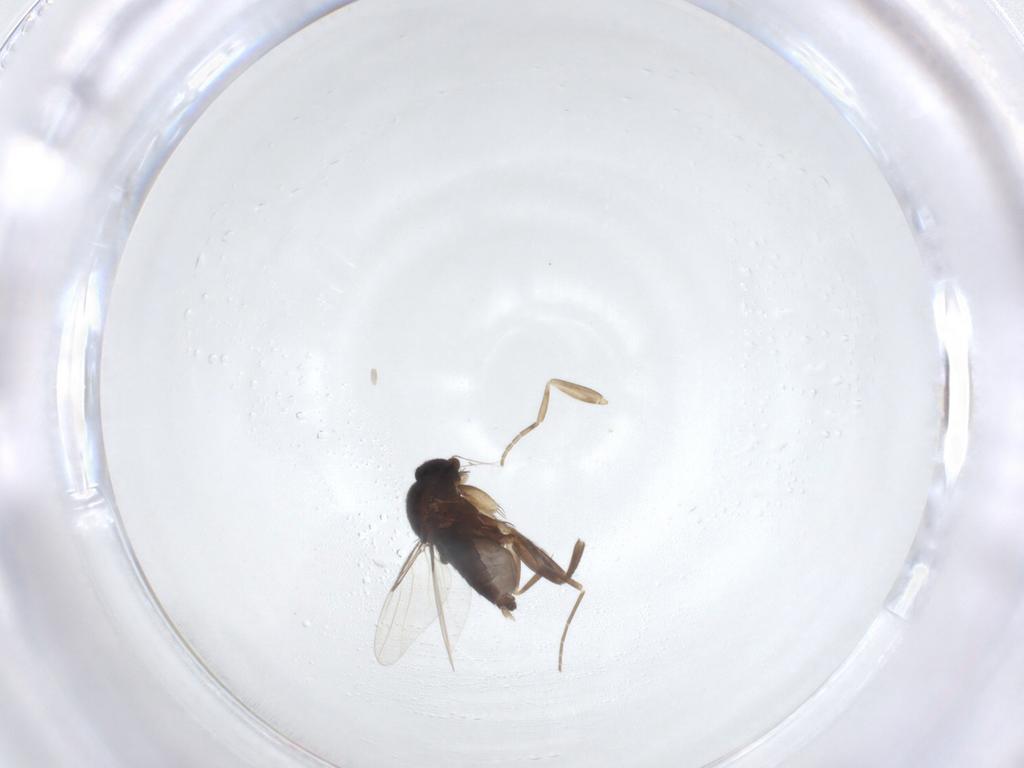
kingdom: Animalia
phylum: Arthropoda
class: Insecta
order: Diptera
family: Phoridae
